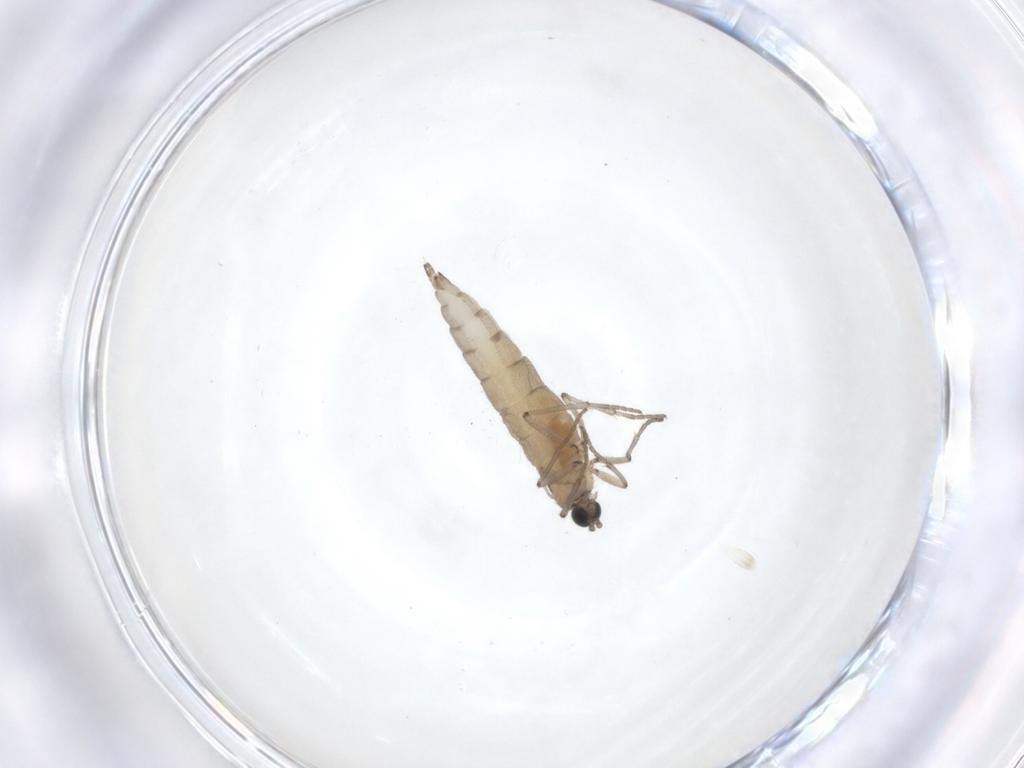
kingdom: Animalia
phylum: Arthropoda
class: Insecta
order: Diptera
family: Sciaridae
